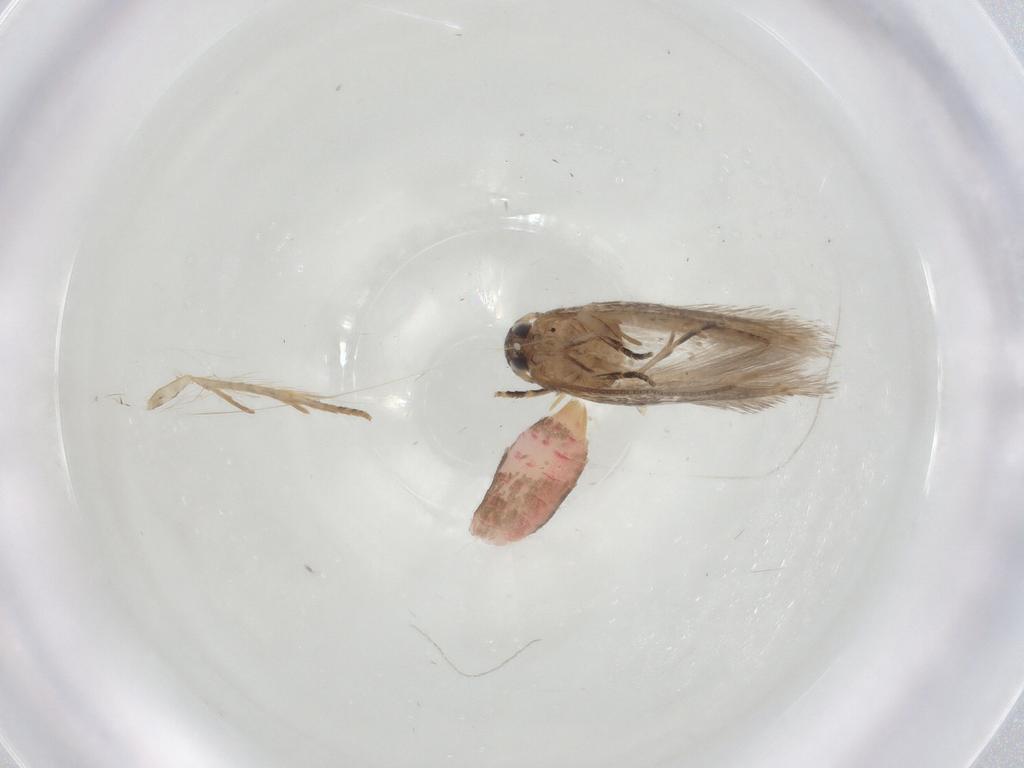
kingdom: Animalia
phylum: Arthropoda
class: Insecta
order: Lepidoptera
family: Elachistidae
